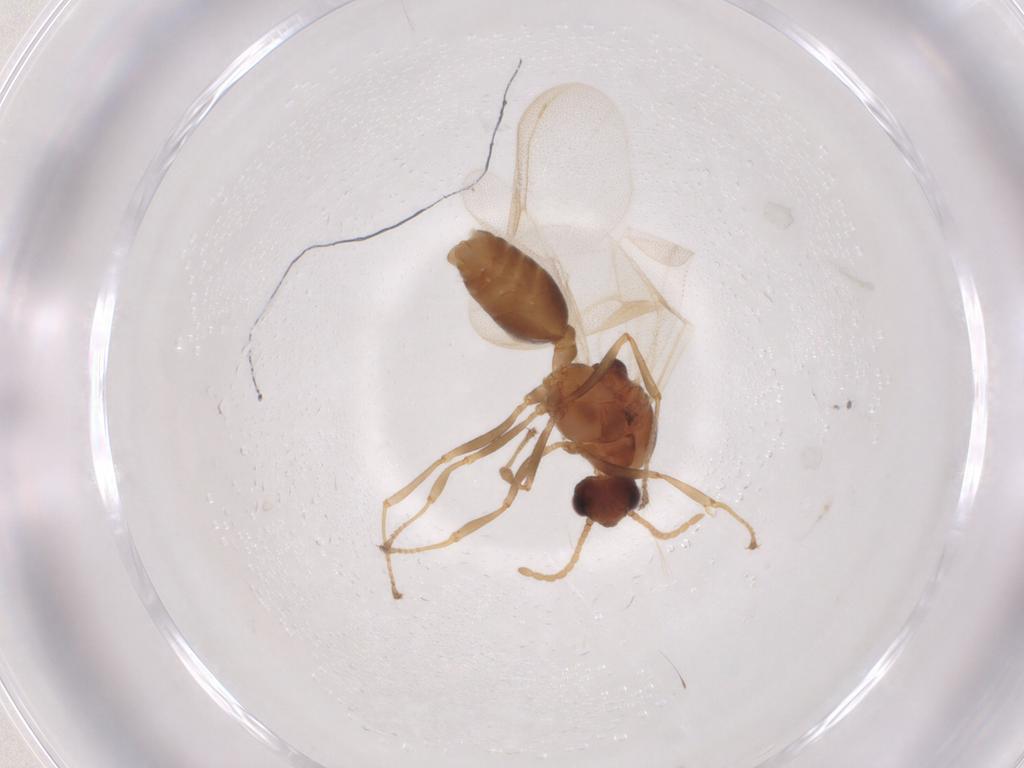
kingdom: Animalia
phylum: Arthropoda
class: Insecta
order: Hymenoptera
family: Formicidae
